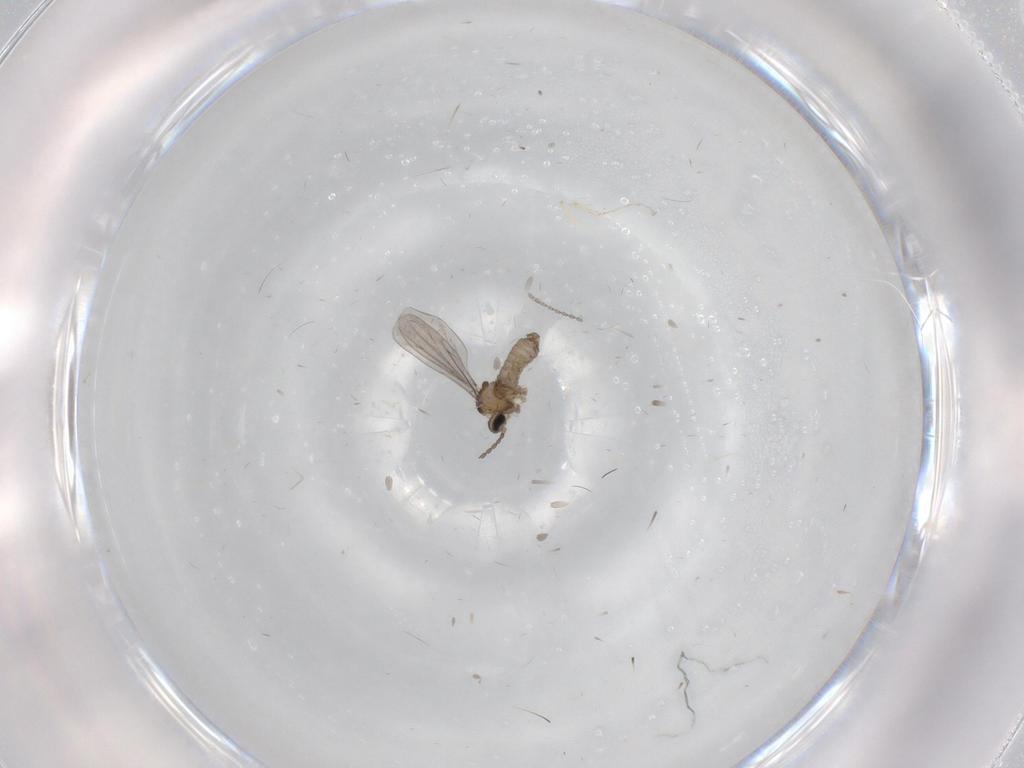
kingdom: Animalia
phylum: Arthropoda
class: Insecta
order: Diptera
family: Cecidomyiidae
